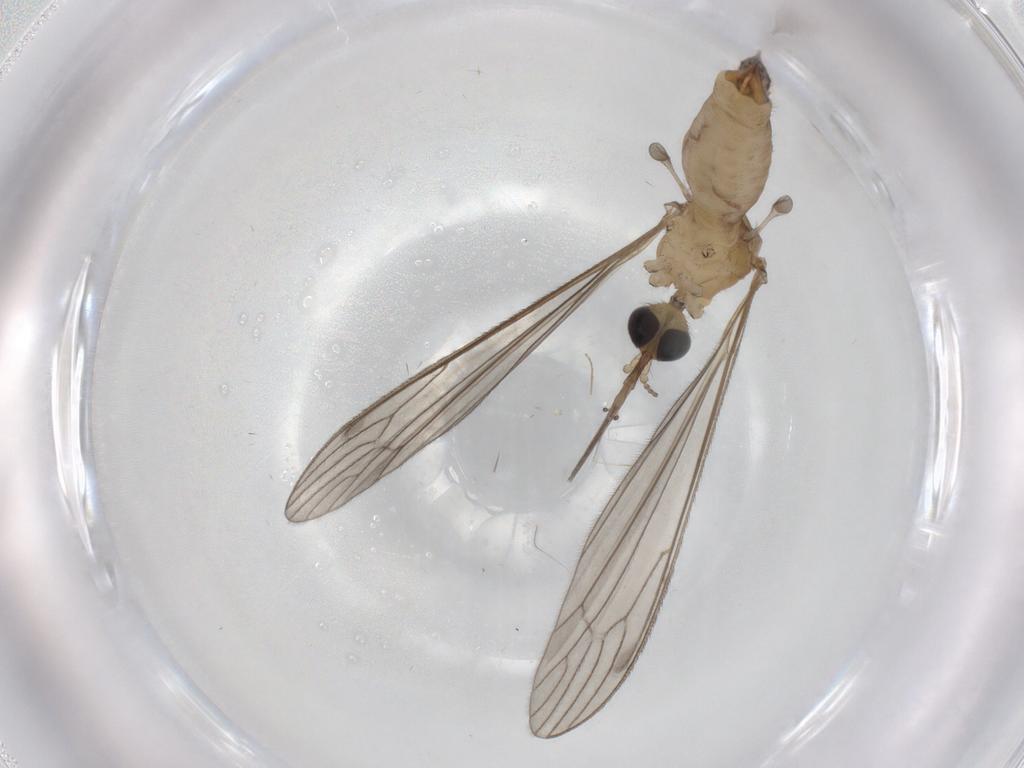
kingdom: Animalia
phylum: Arthropoda
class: Insecta
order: Diptera
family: Limoniidae
